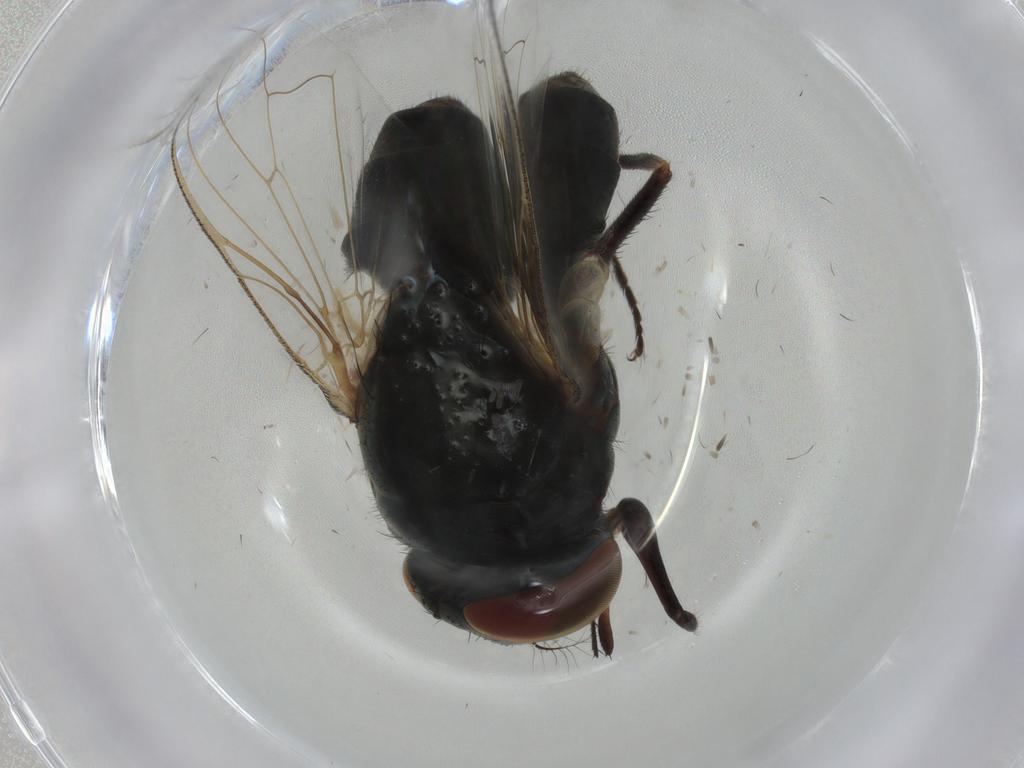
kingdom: Animalia
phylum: Arthropoda
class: Insecta
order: Diptera
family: Muscidae
